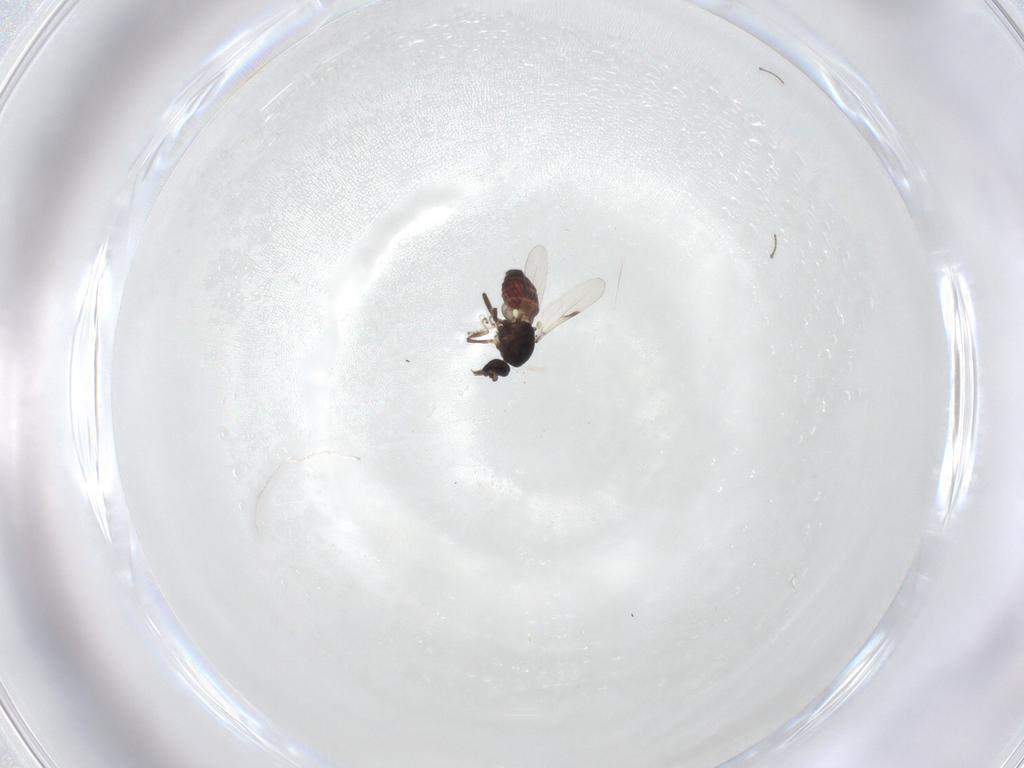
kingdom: Animalia
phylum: Arthropoda
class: Insecta
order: Diptera
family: Ceratopogonidae
